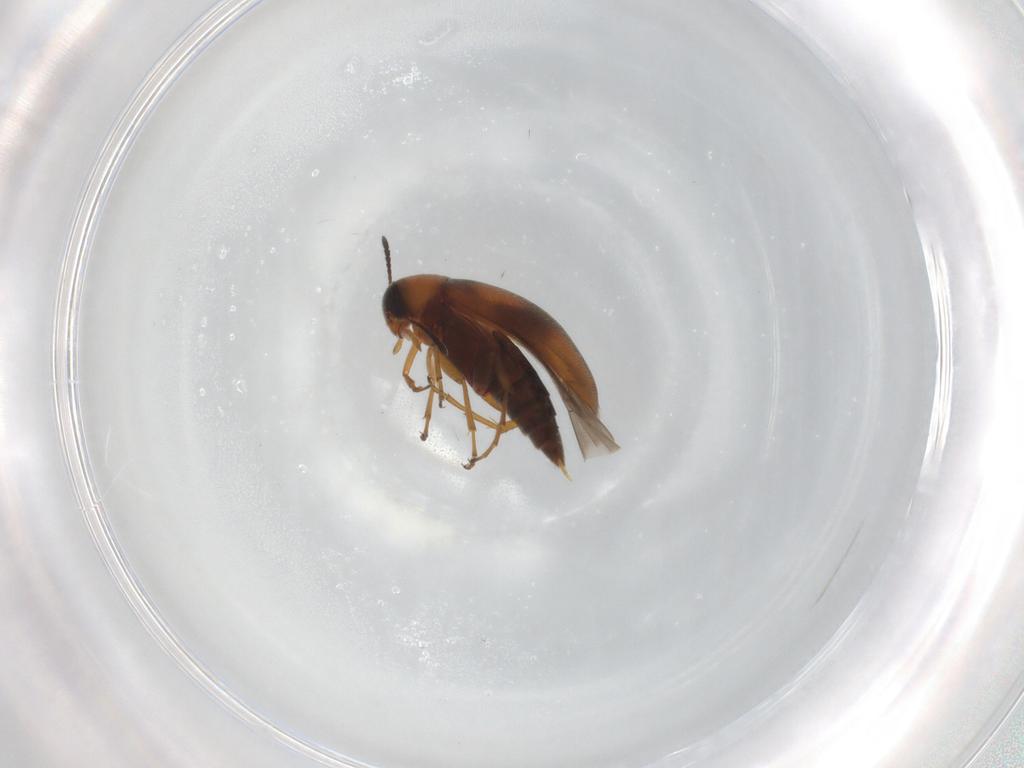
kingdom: Animalia
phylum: Arthropoda
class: Insecta
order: Coleoptera
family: Scraptiidae
